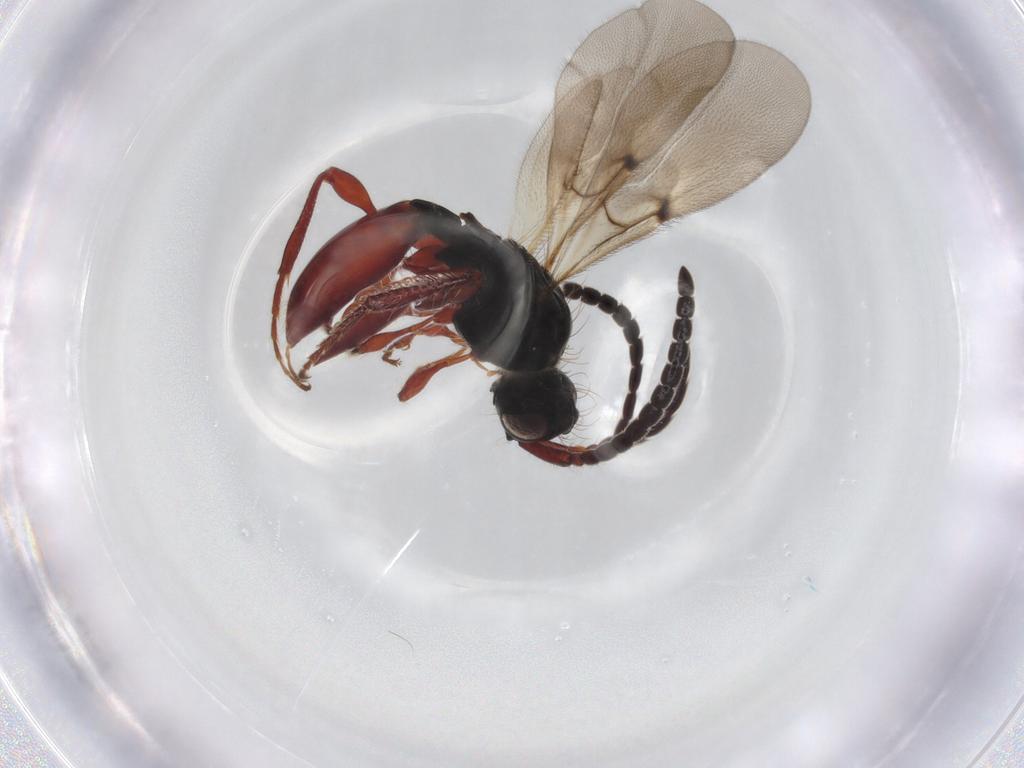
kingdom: Animalia
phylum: Arthropoda
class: Insecta
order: Hymenoptera
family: Diapriidae
